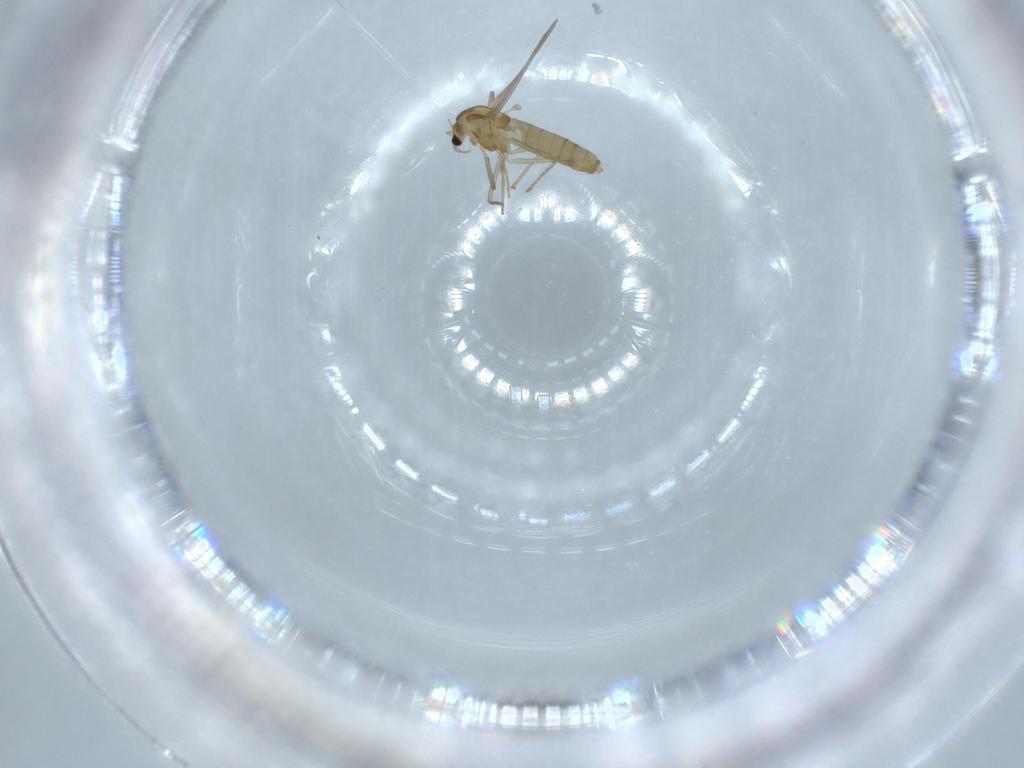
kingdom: Animalia
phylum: Arthropoda
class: Insecta
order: Diptera
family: Chironomidae
